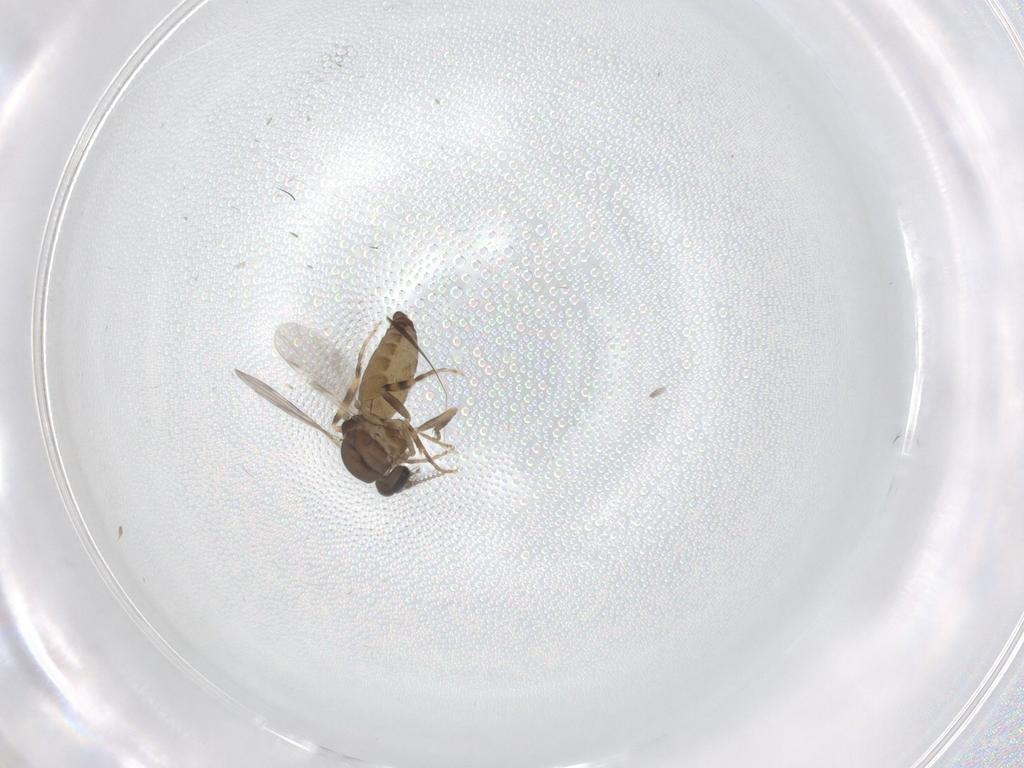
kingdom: Animalia
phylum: Arthropoda
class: Insecta
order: Diptera
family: Ceratopogonidae
